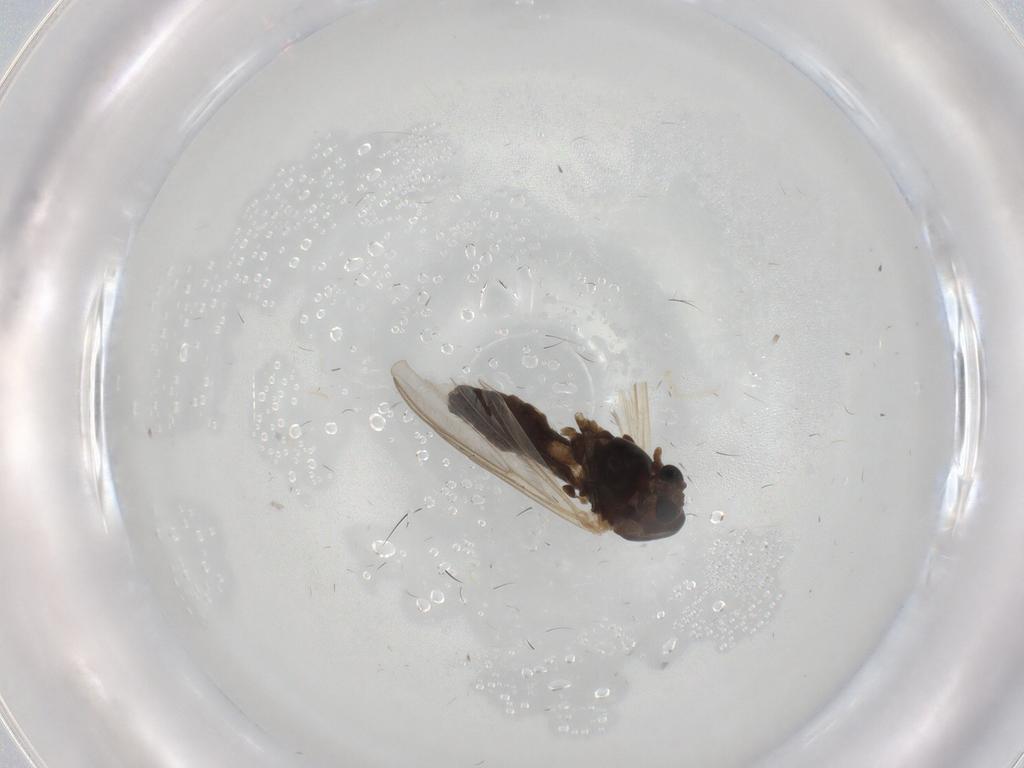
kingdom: Animalia
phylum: Arthropoda
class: Insecta
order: Diptera
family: Chironomidae
